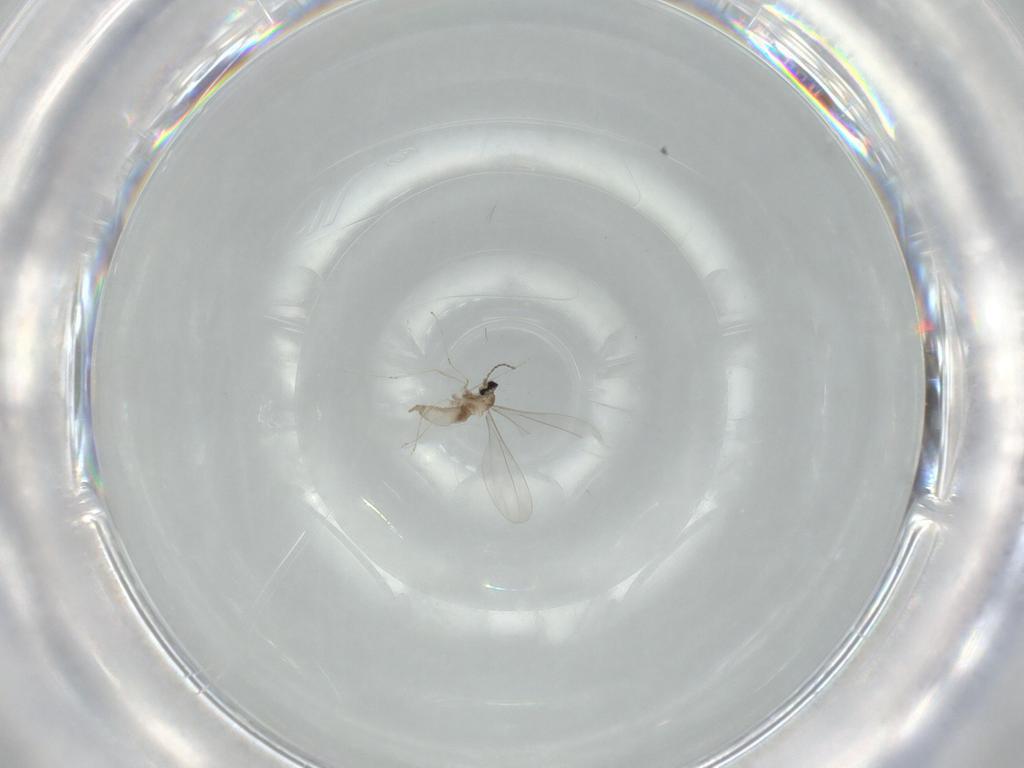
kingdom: Animalia
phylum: Arthropoda
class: Insecta
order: Diptera
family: Cecidomyiidae
